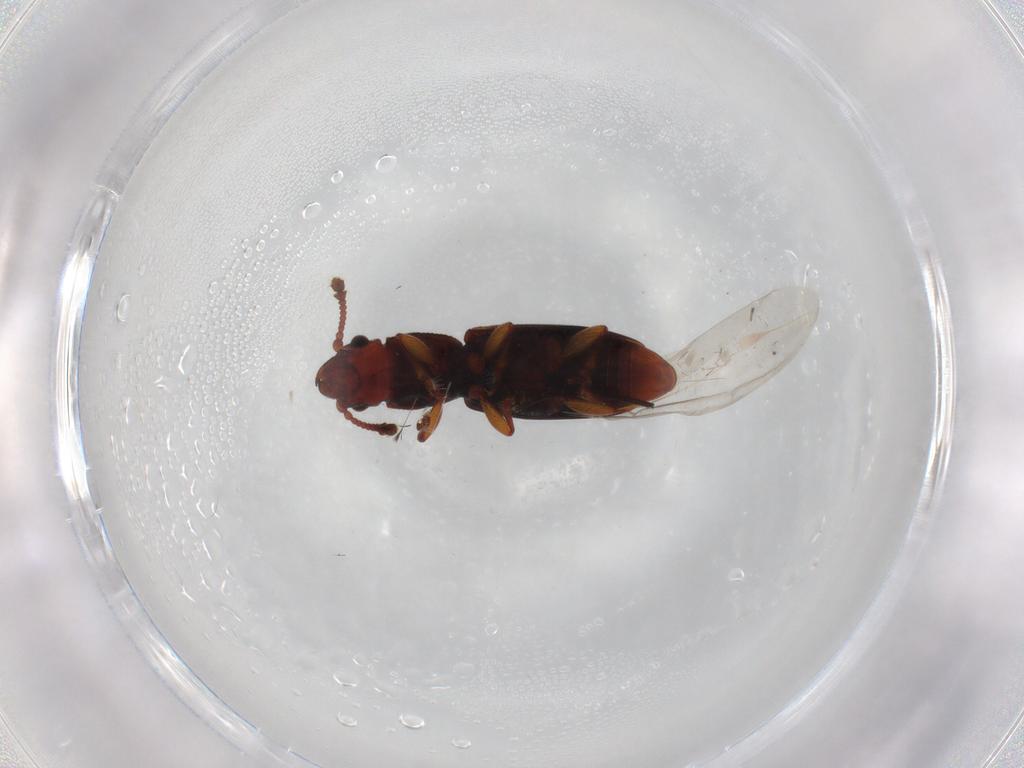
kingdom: Animalia
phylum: Arthropoda
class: Insecta
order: Coleoptera
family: Monotomidae
